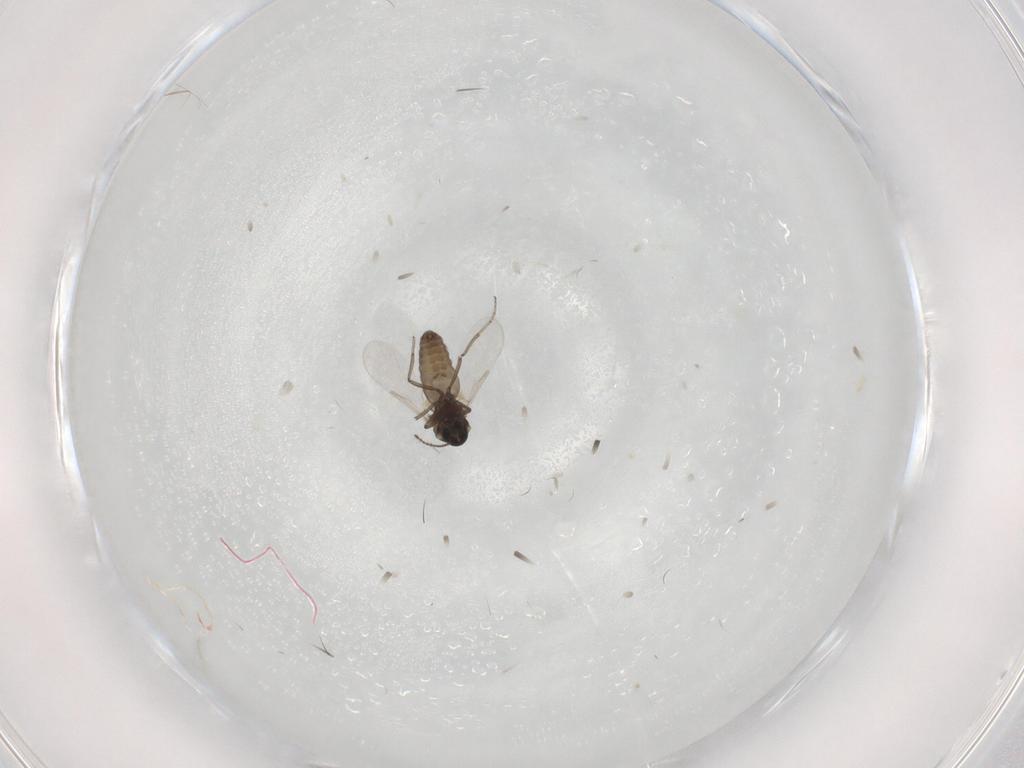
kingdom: Animalia
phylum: Arthropoda
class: Insecta
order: Diptera
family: Ceratopogonidae
